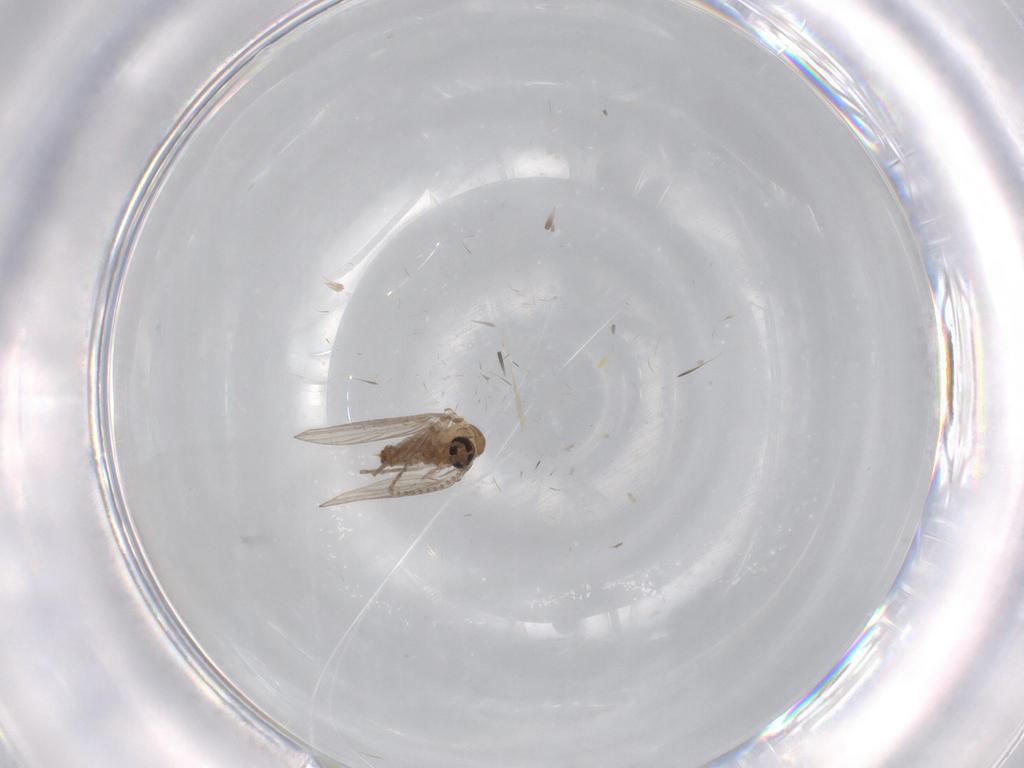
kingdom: Animalia
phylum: Arthropoda
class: Insecta
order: Diptera
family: Psychodidae
